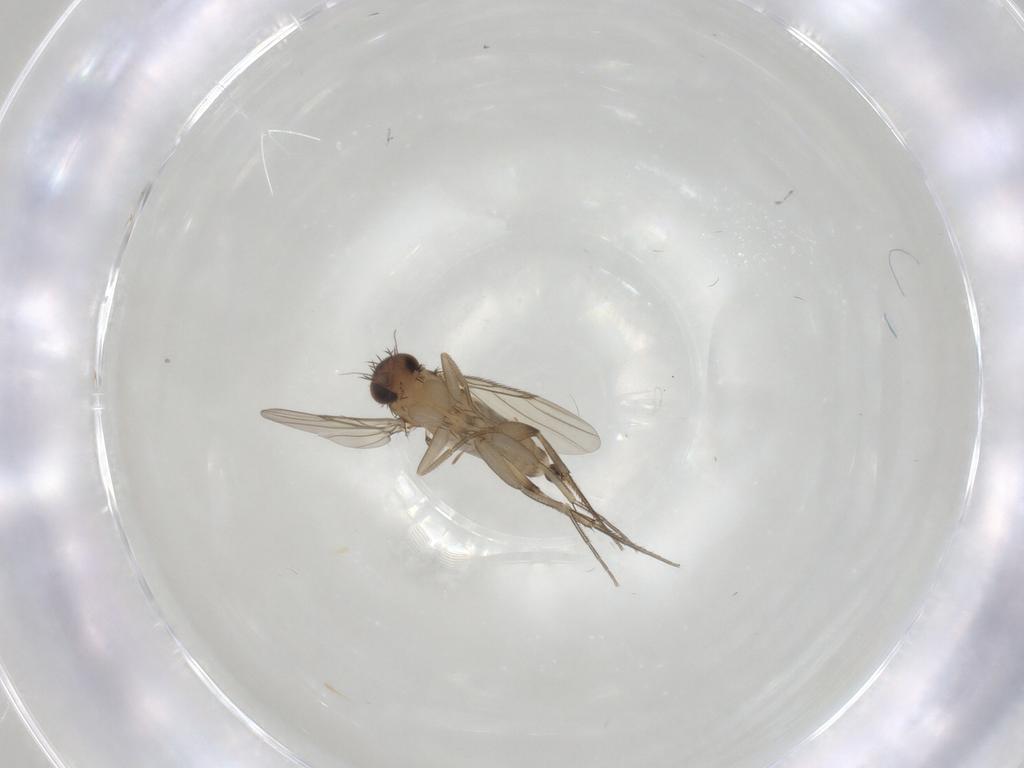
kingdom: Animalia
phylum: Arthropoda
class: Insecta
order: Diptera
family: Phoridae
